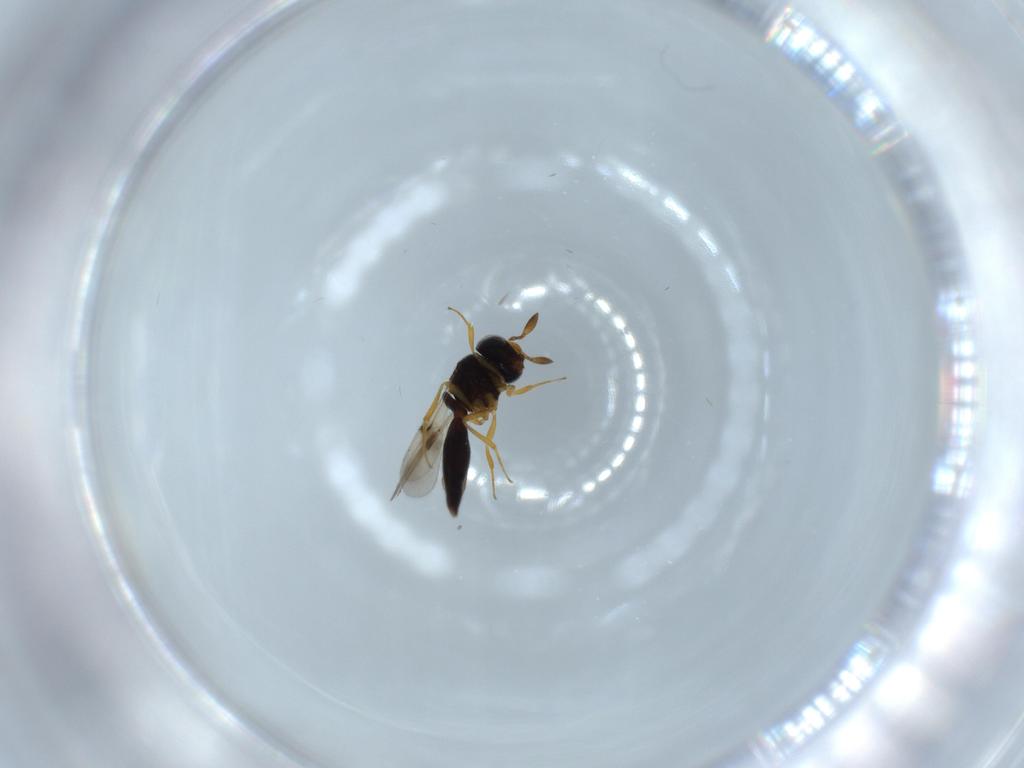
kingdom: Animalia
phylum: Arthropoda
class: Insecta
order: Hymenoptera
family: Scelionidae
